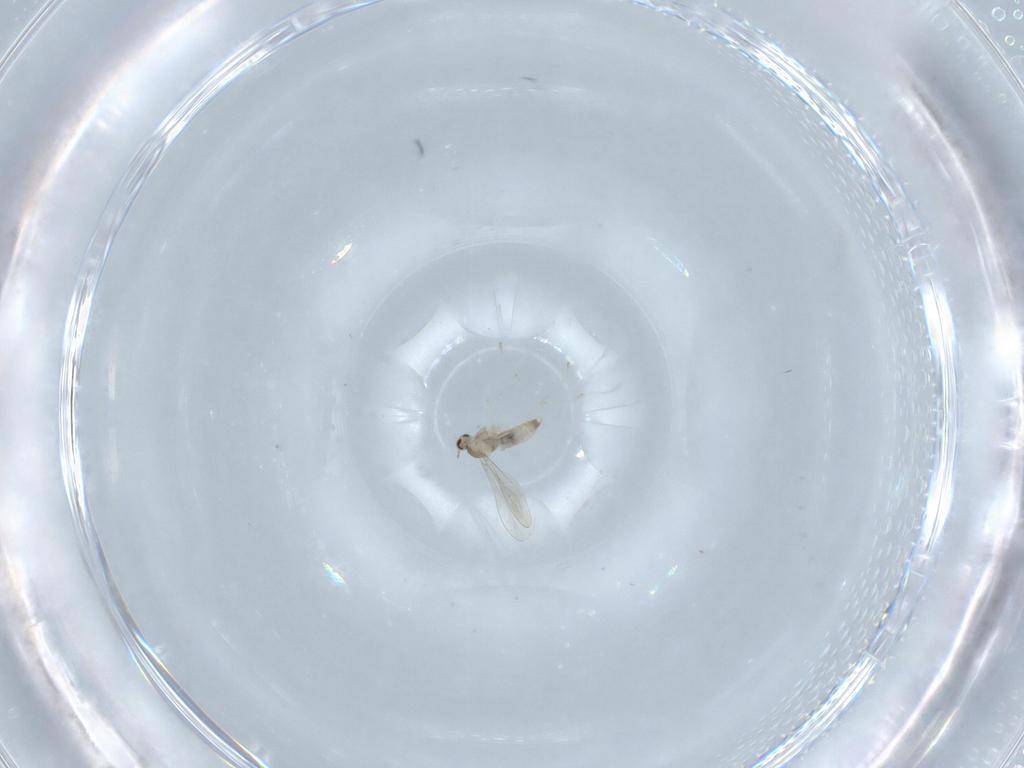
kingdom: Animalia
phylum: Arthropoda
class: Insecta
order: Diptera
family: Cecidomyiidae
